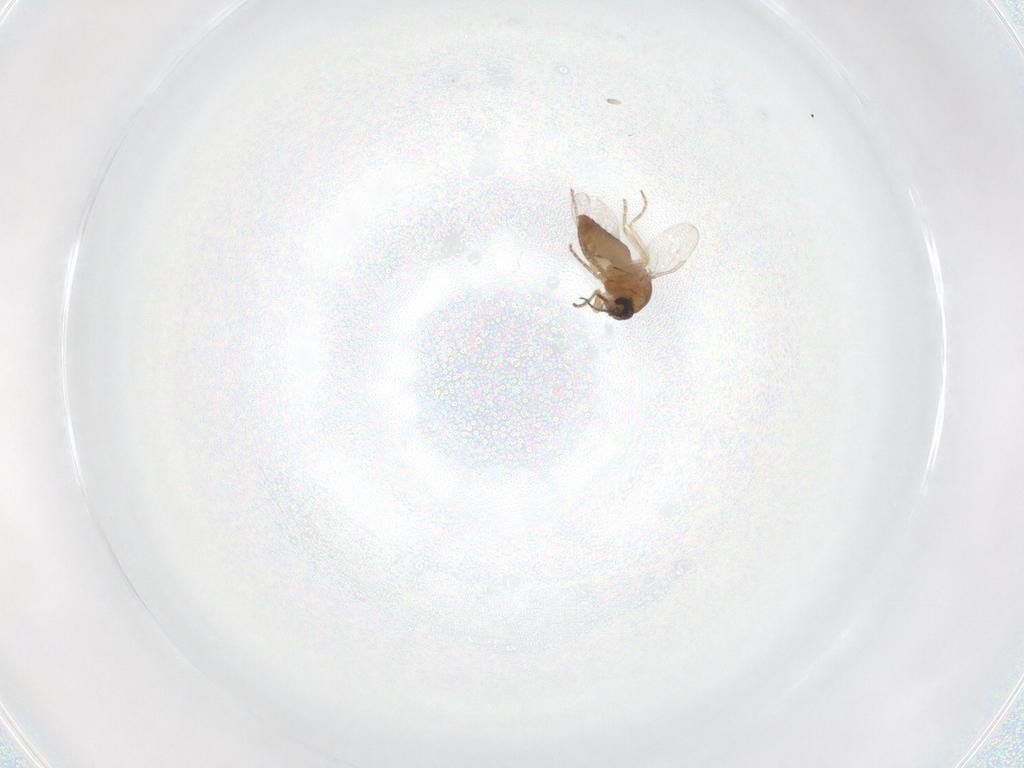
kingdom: Animalia
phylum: Arthropoda
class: Insecta
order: Diptera
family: Ceratopogonidae
